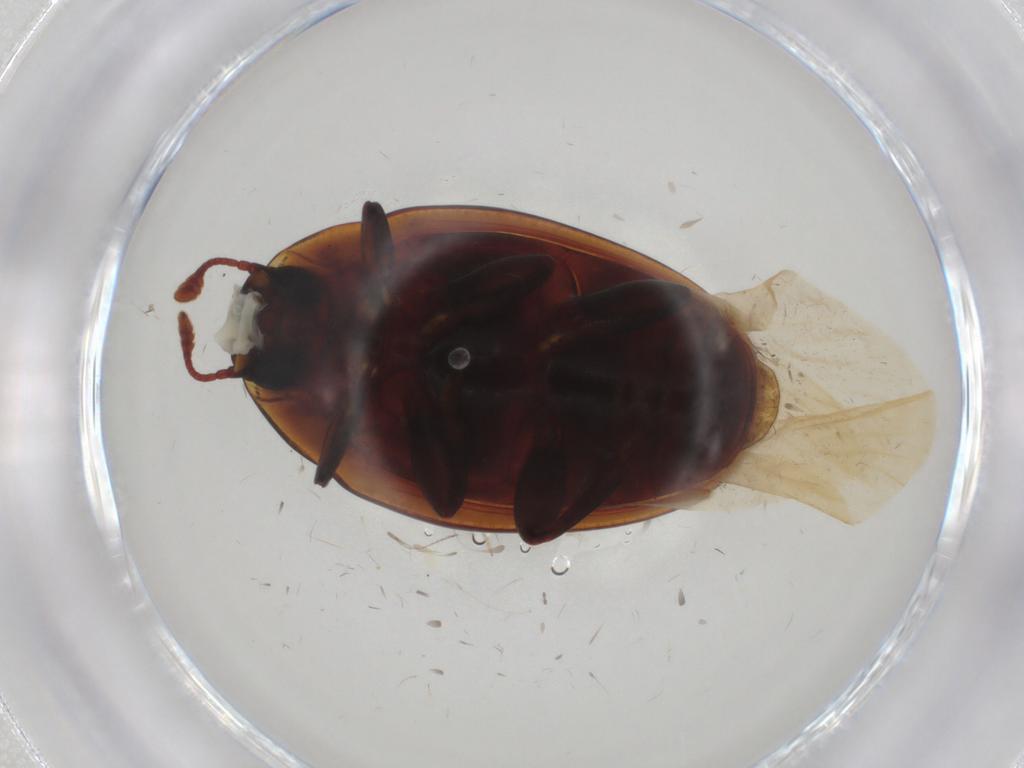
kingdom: Animalia
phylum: Arthropoda
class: Insecta
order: Coleoptera
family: Zopheridae
